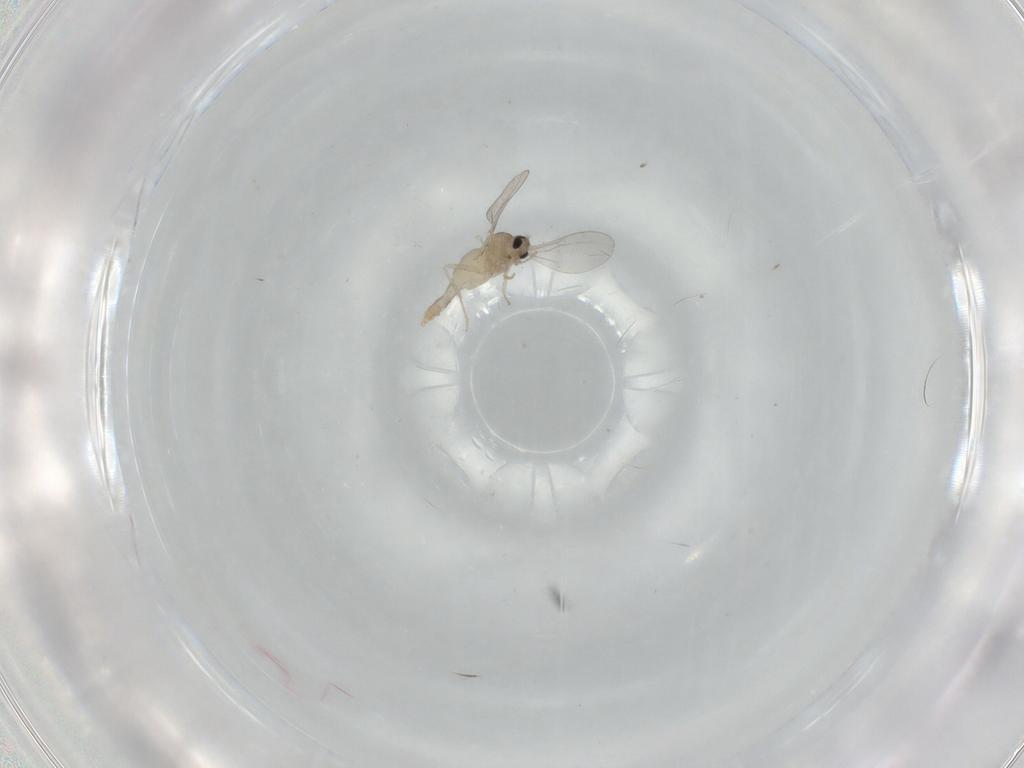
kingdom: Animalia
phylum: Arthropoda
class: Insecta
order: Diptera
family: Cecidomyiidae
